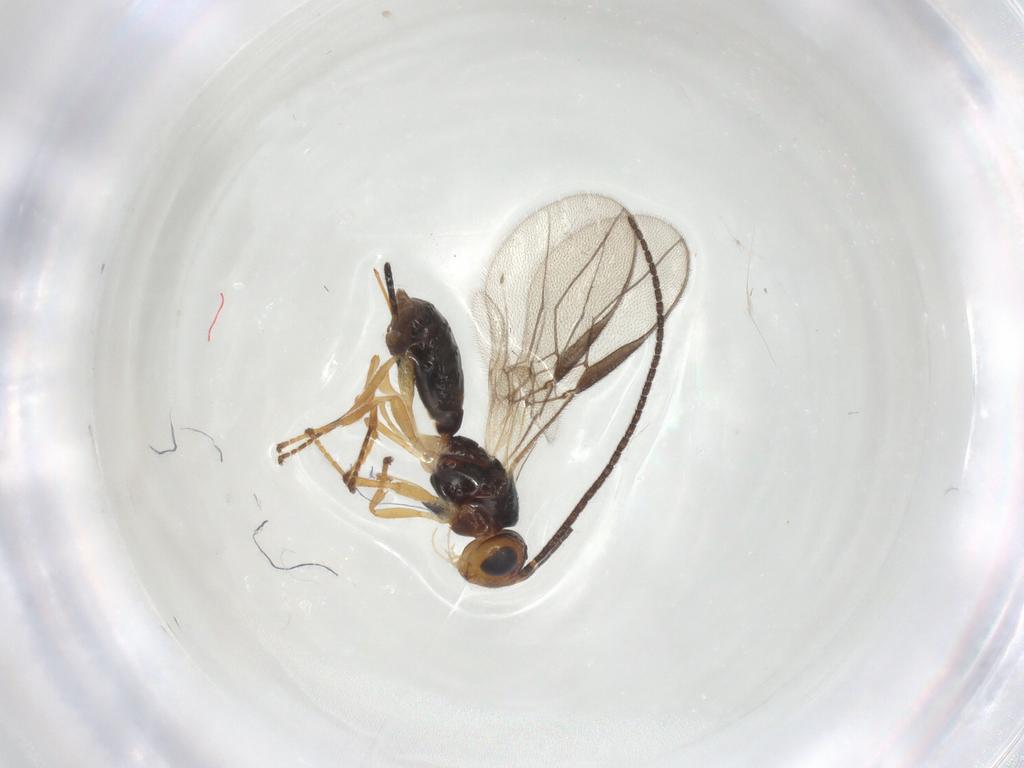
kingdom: Animalia
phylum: Arthropoda
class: Insecta
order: Hymenoptera
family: Braconidae
